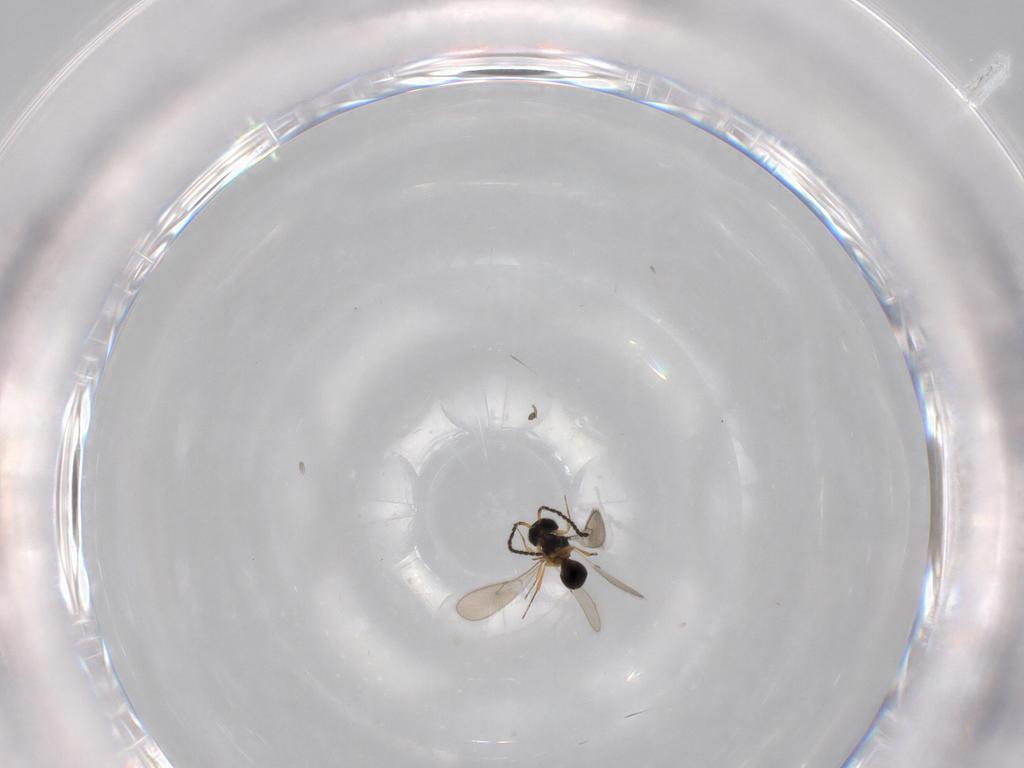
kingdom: Animalia
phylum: Arthropoda
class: Insecta
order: Hymenoptera
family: Scelionidae
